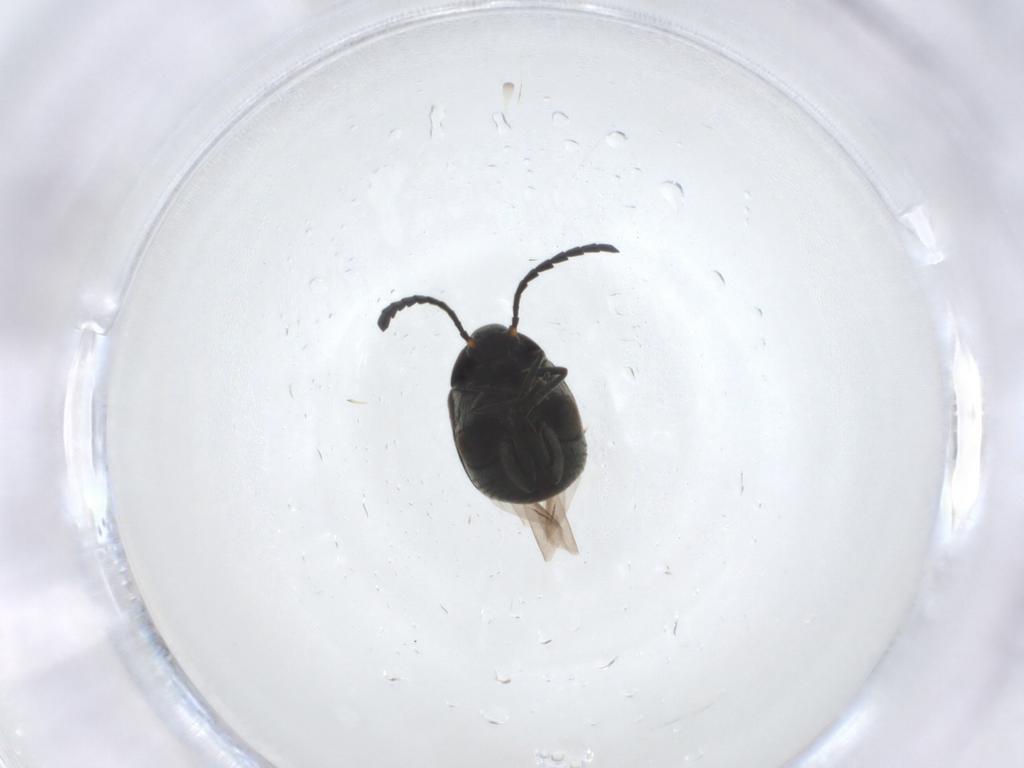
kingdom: Animalia
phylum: Arthropoda
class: Insecta
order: Coleoptera
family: Chrysomelidae
